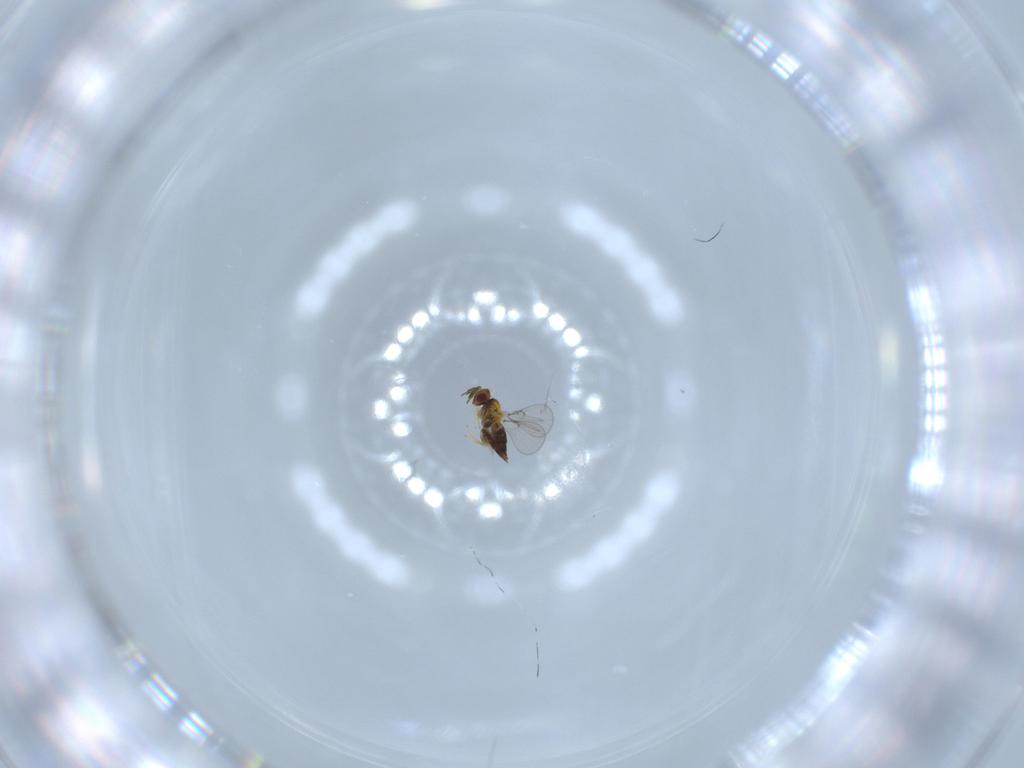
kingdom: Animalia
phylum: Arthropoda
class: Insecta
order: Hymenoptera
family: Trichogrammatidae
